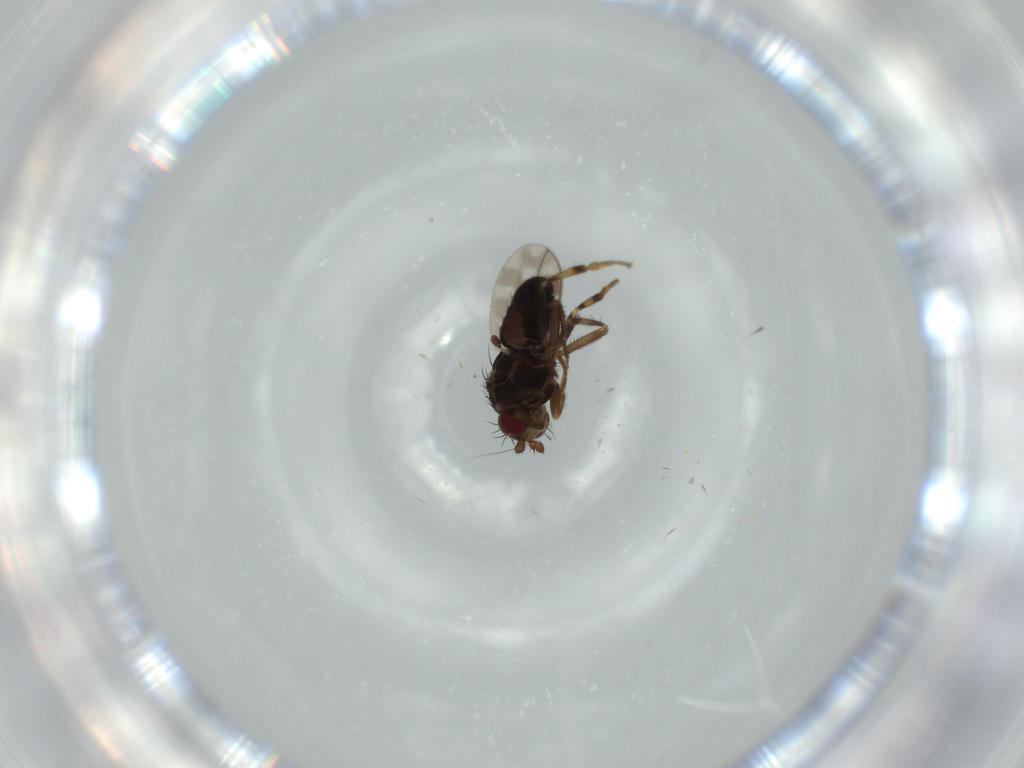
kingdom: Animalia
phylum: Arthropoda
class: Insecta
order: Diptera
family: Sphaeroceridae
